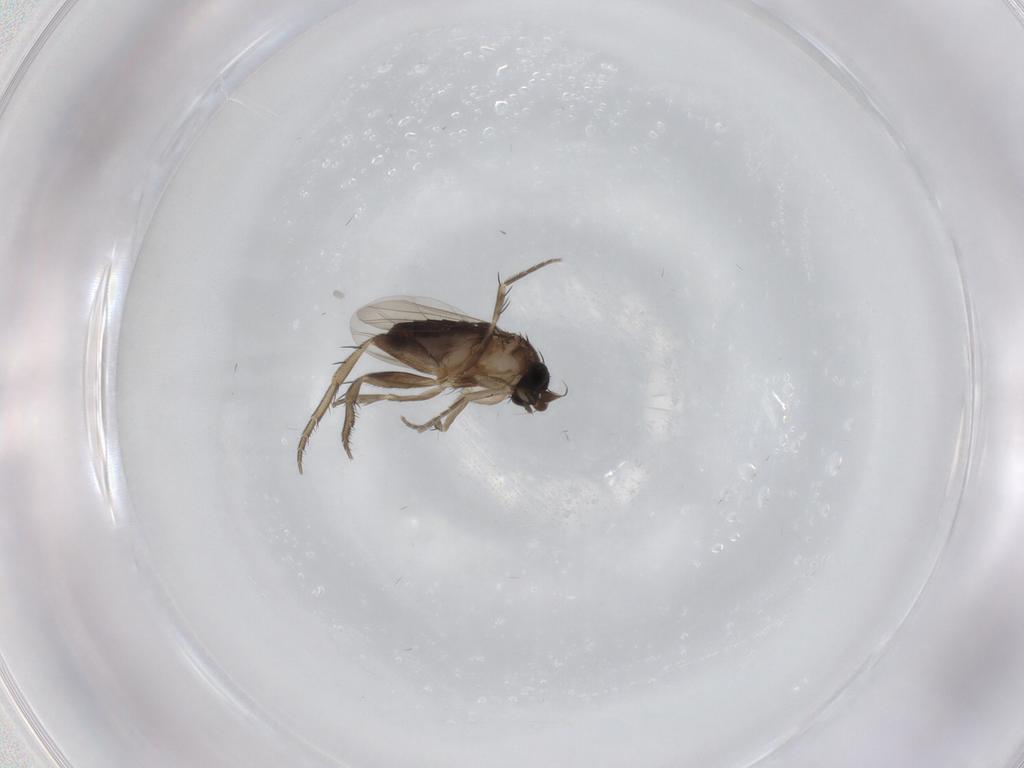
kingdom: Animalia
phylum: Arthropoda
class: Insecta
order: Diptera
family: Phoridae
